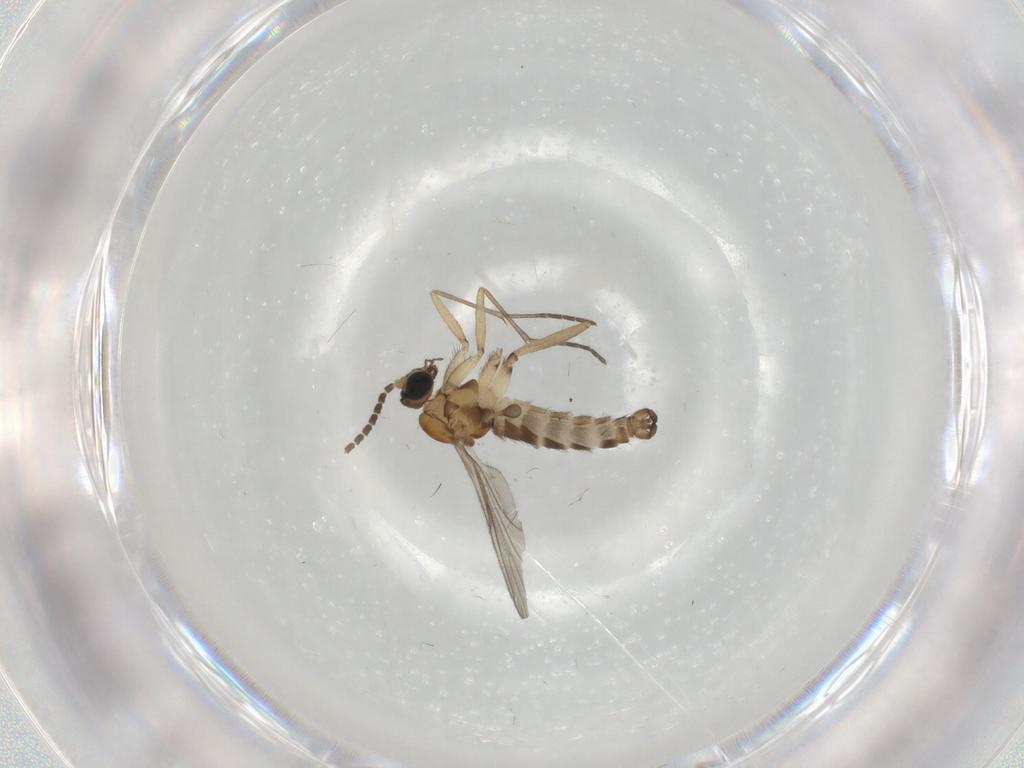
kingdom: Animalia
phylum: Arthropoda
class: Insecta
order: Diptera
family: Sciaridae
